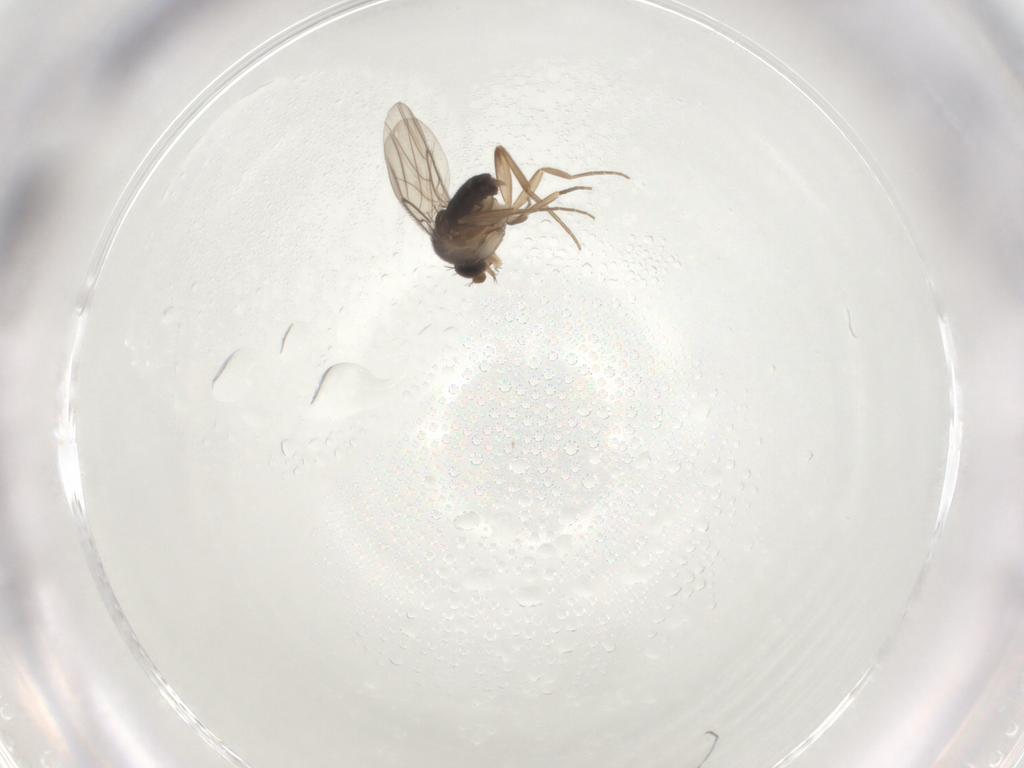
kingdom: Animalia
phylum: Arthropoda
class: Insecta
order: Diptera
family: Phoridae
